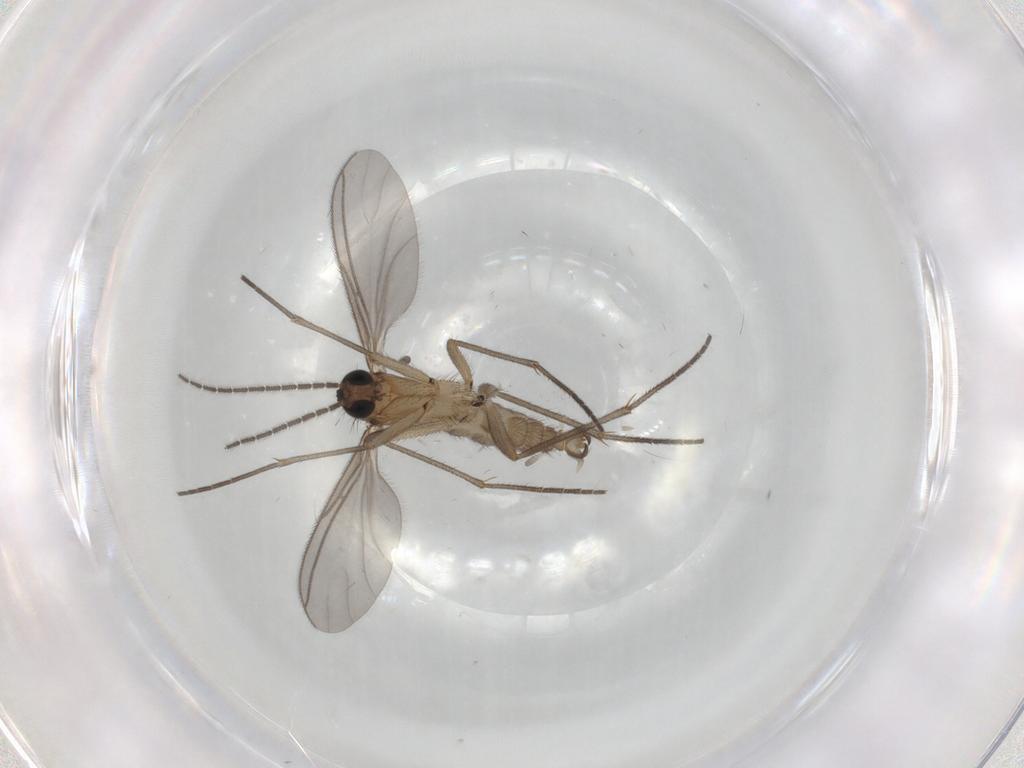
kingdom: Animalia
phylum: Arthropoda
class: Insecta
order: Diptera
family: Sciaridae
